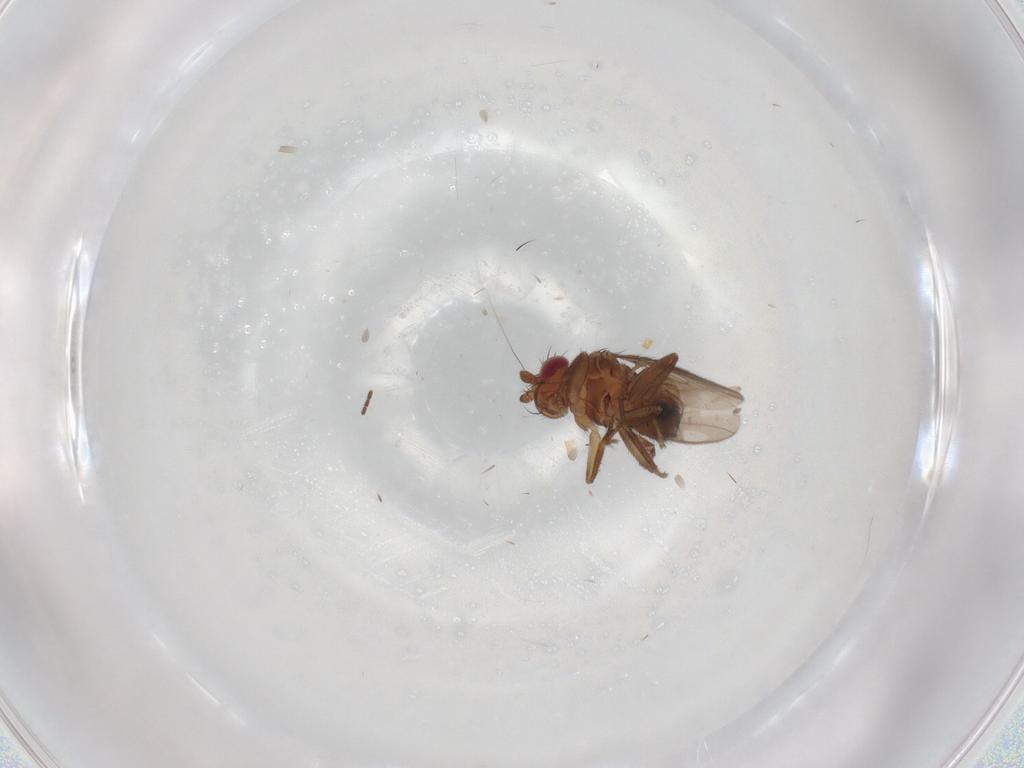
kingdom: Animalia
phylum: Arthropoda
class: Insecta
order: Diptera
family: Sphaeroceridae
